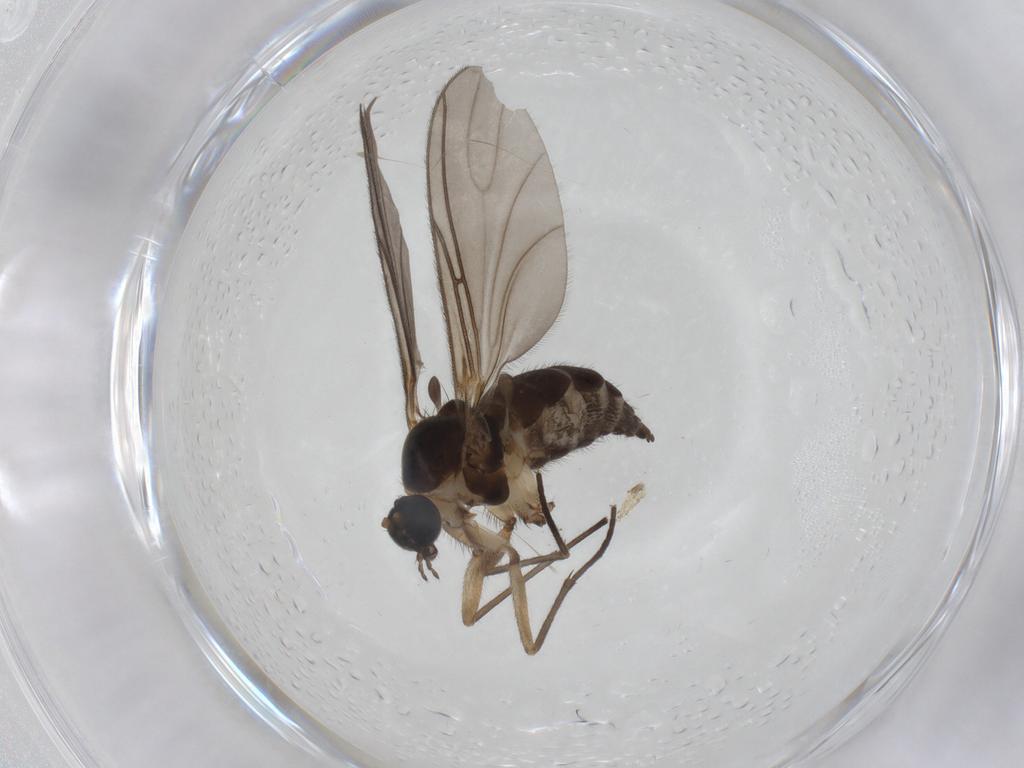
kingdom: Animalia
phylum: Arthropoda
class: Insecta
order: Diptera
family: Sciaridae
